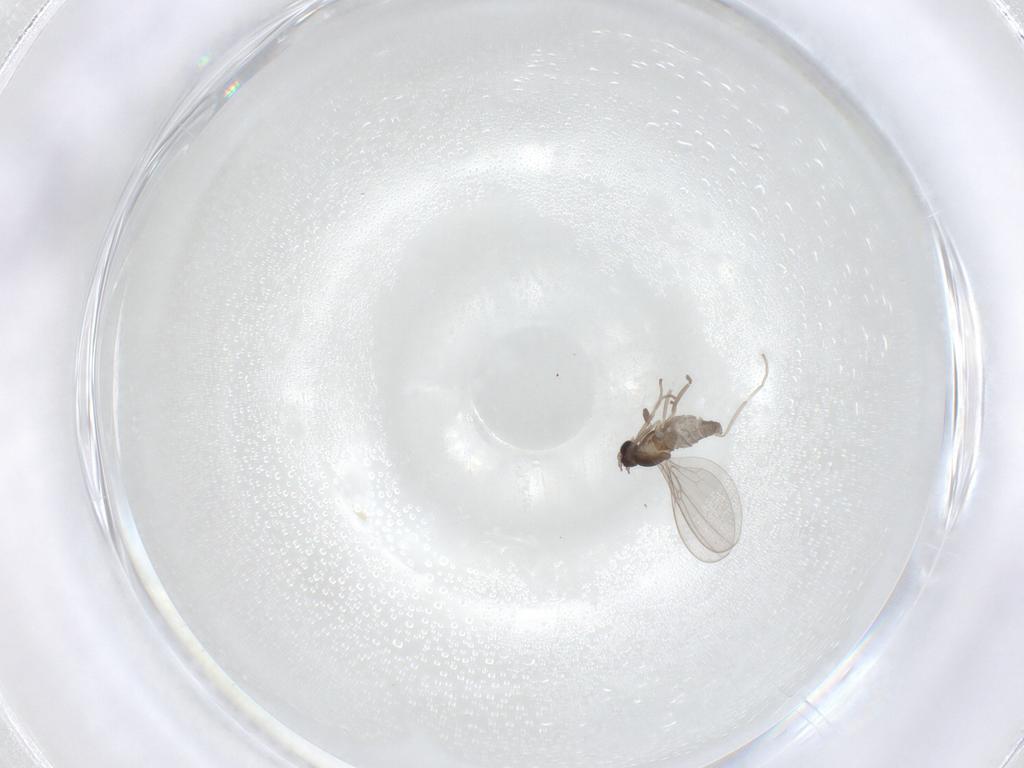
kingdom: Animalia
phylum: Arthropoda
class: Insecta
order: Diptera
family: Cecidomyiidae
